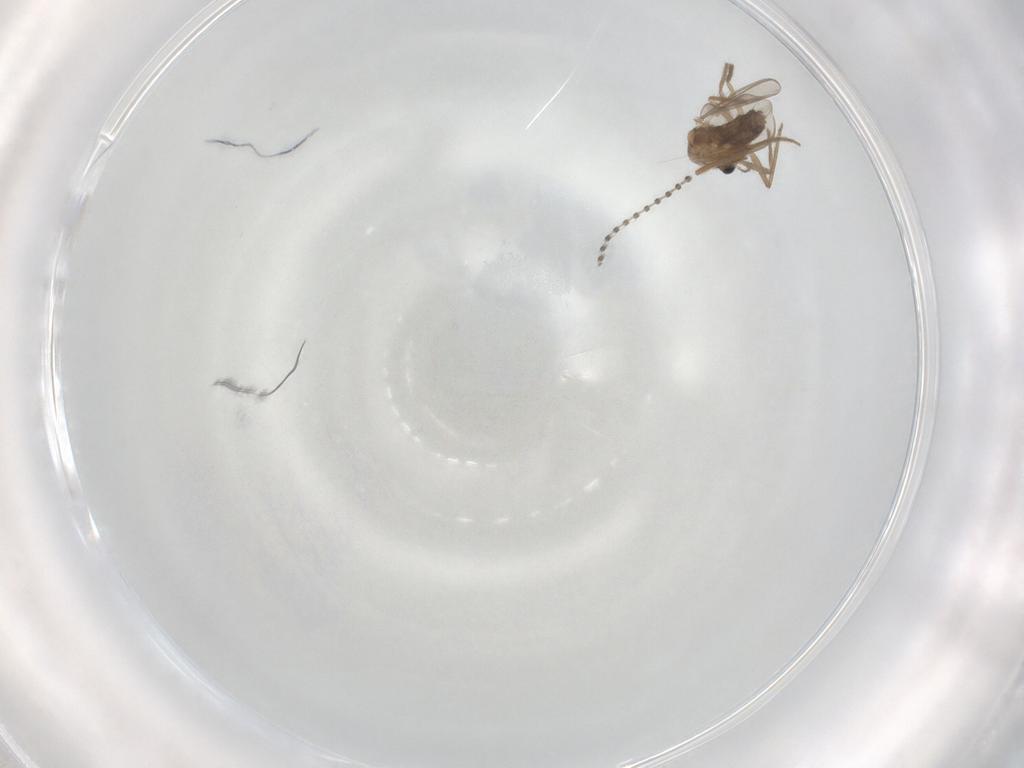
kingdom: Animalia
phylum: Arthropoda
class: Insecta
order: Diptera
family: Chironomidae
